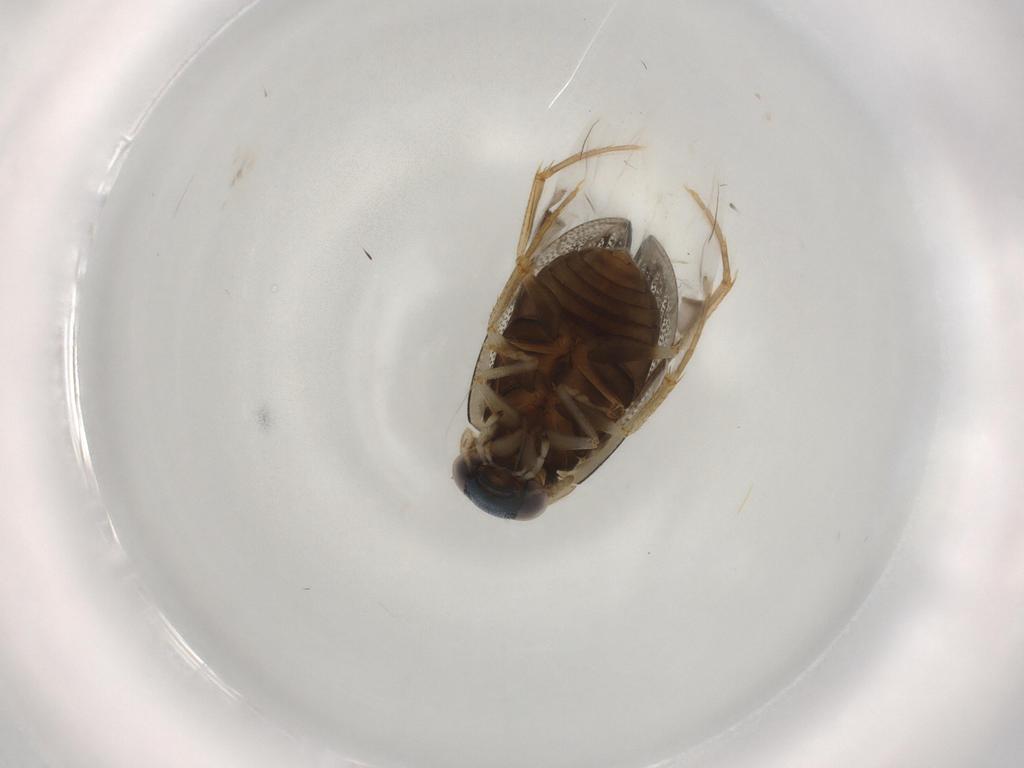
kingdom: Animalia
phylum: Arthropoda
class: Insecta
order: Coleoptera
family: Hydrophilidae
